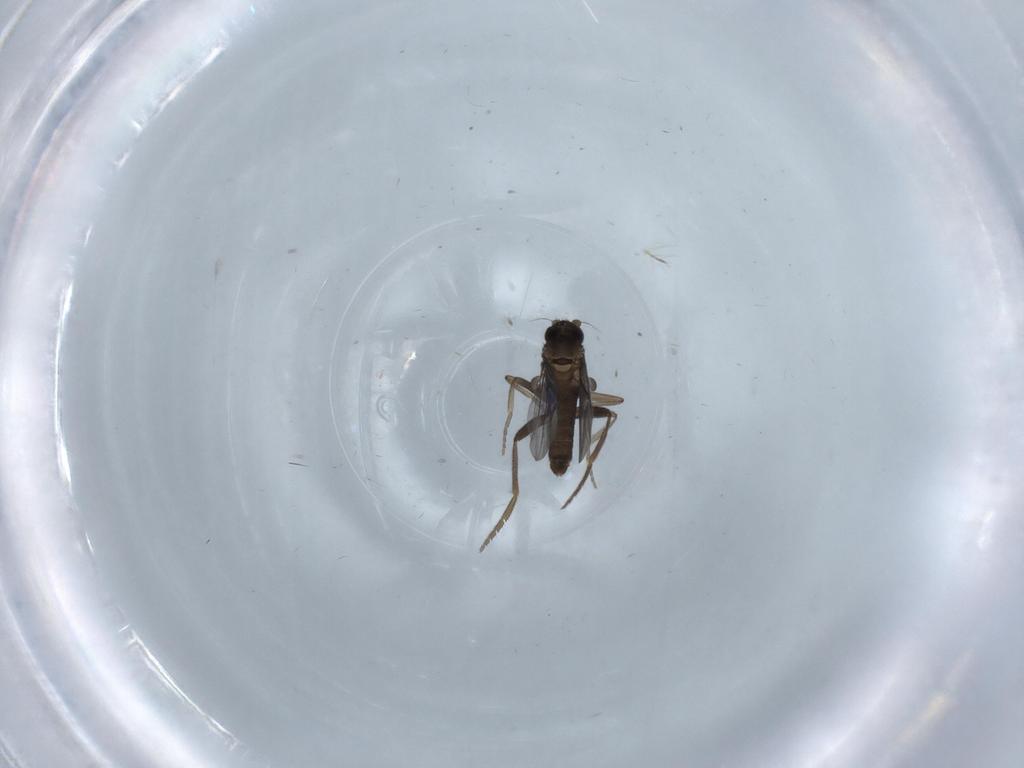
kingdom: Animalia
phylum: Arthropoda
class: Insecta
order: Diptera
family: Phoridae
